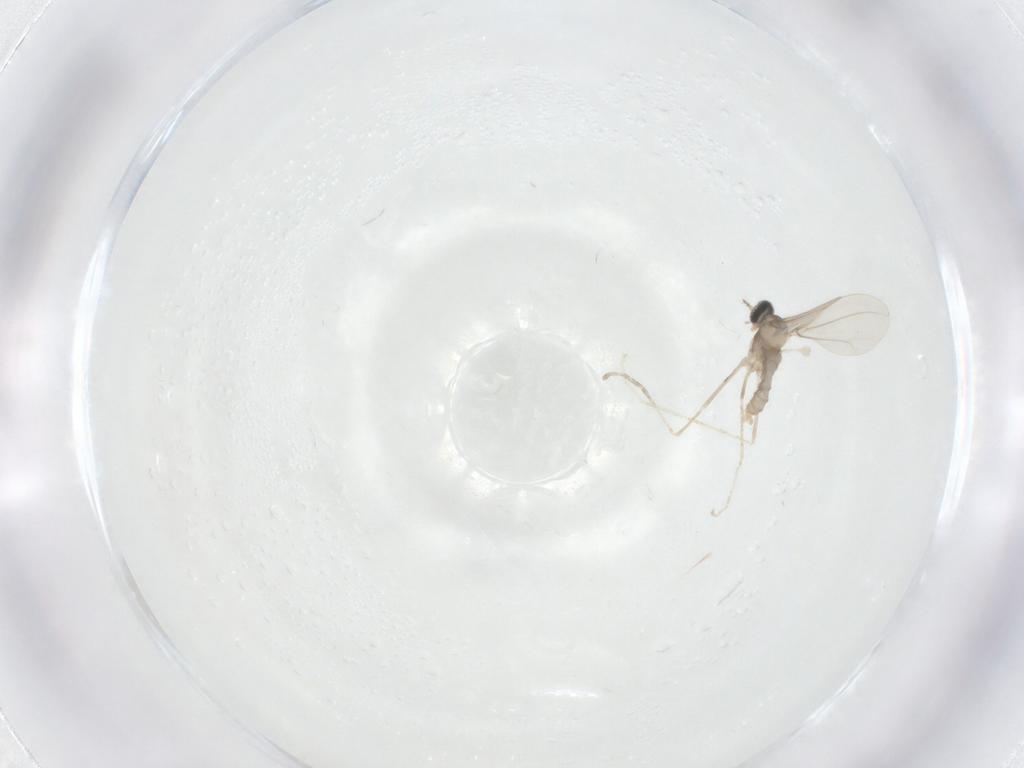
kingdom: Animalia
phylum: Arthropoda
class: Insecta
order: Diptera
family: Cecidomyiidae
